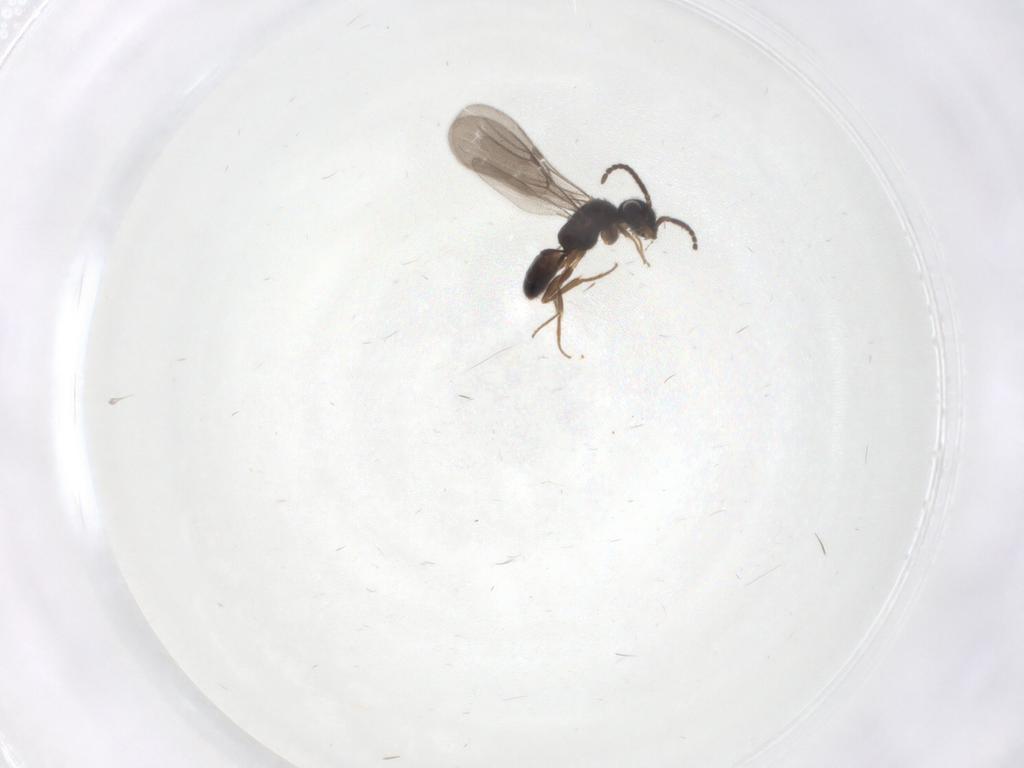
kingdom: Animalia
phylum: Arthropoda
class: Insecta
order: Hymenoptera
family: Bethylidae
